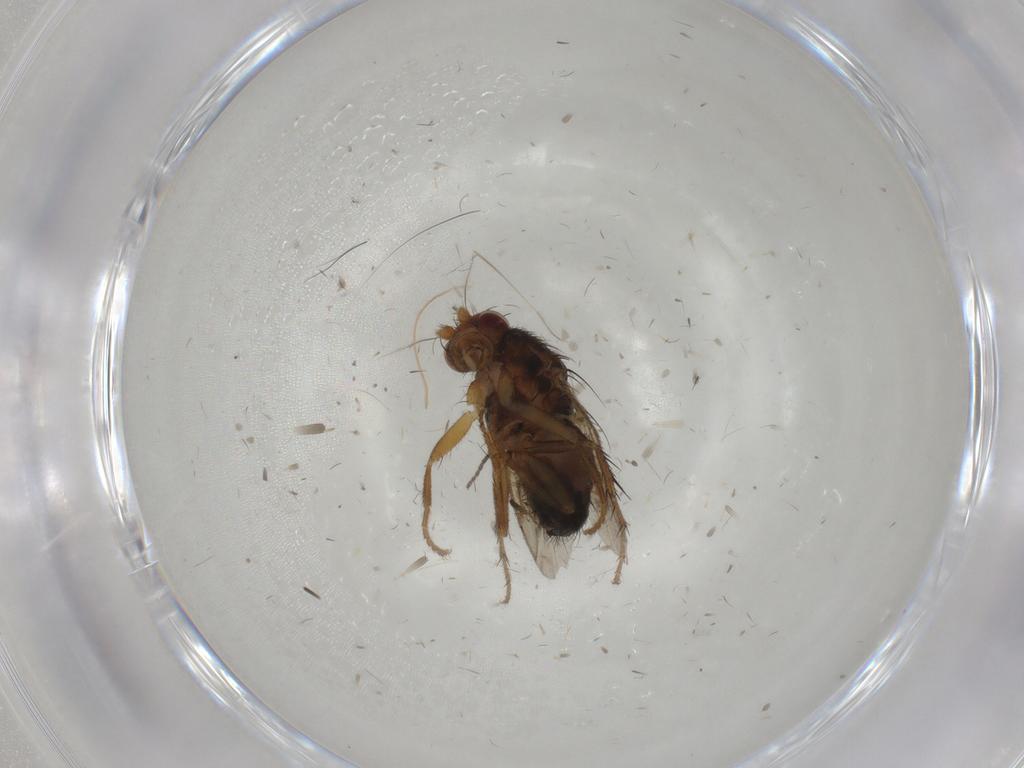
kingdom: Animalia
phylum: Arthropoda
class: Insecta
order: Diptera
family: Sphaeroceridae
